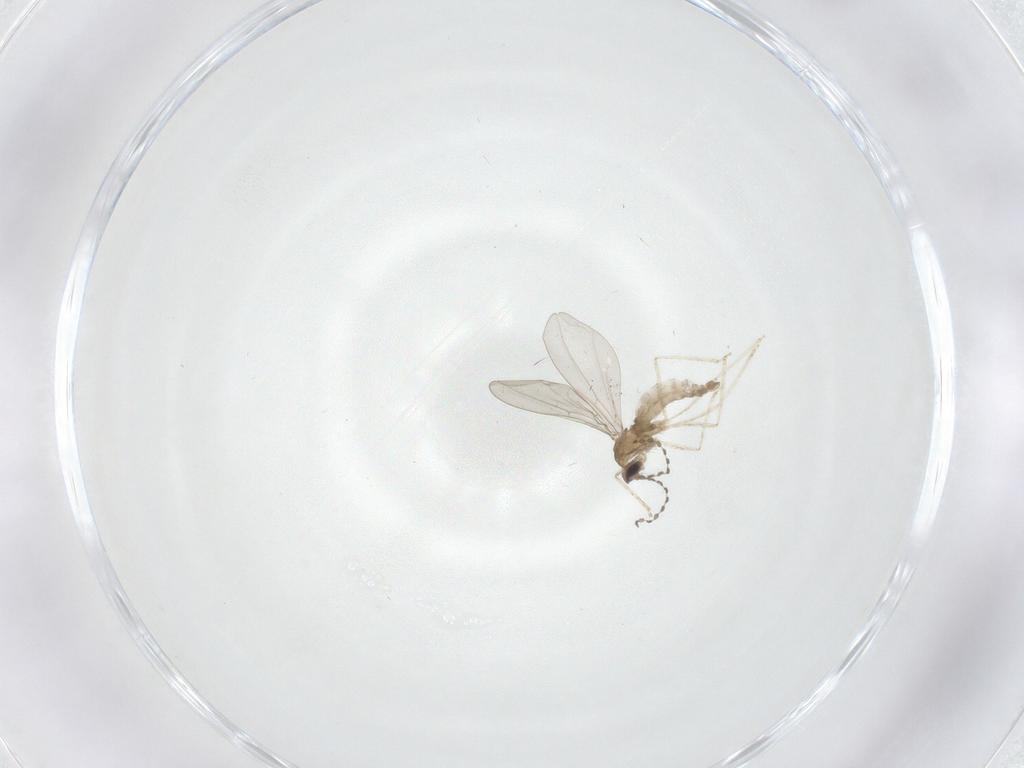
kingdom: Animalia
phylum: Arthropoda
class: Insecta
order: Diptera
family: Cecidomyiidae
